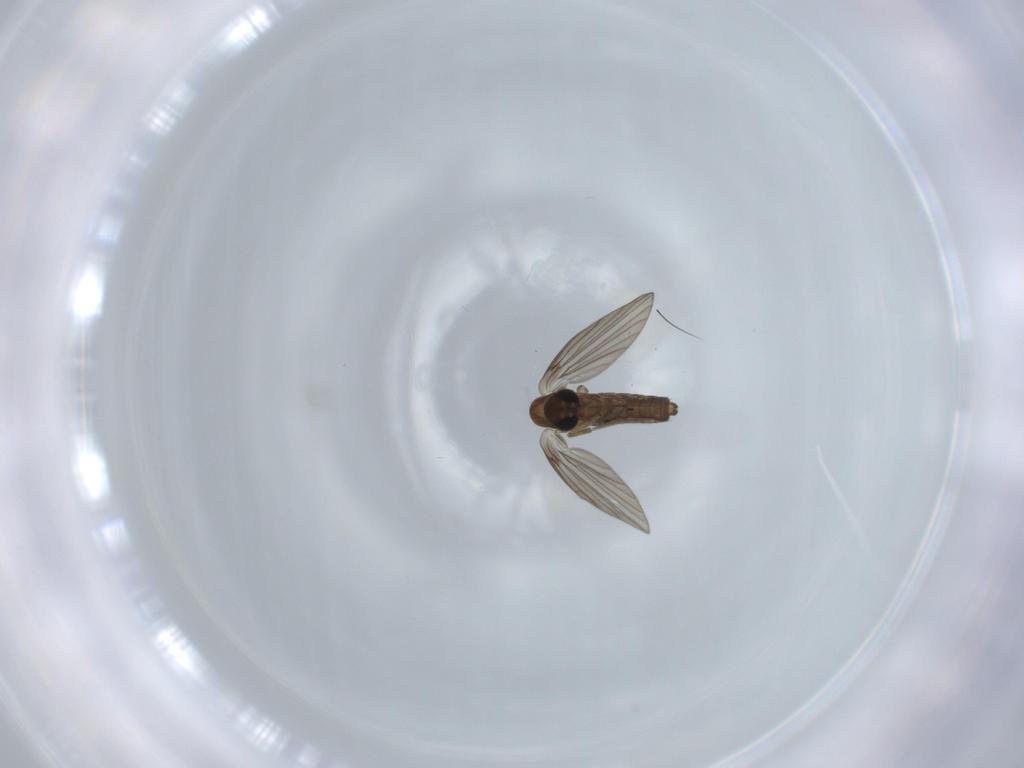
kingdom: Animalia
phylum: Arthropoda
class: Insecta
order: Diptera
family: Psychodidae
